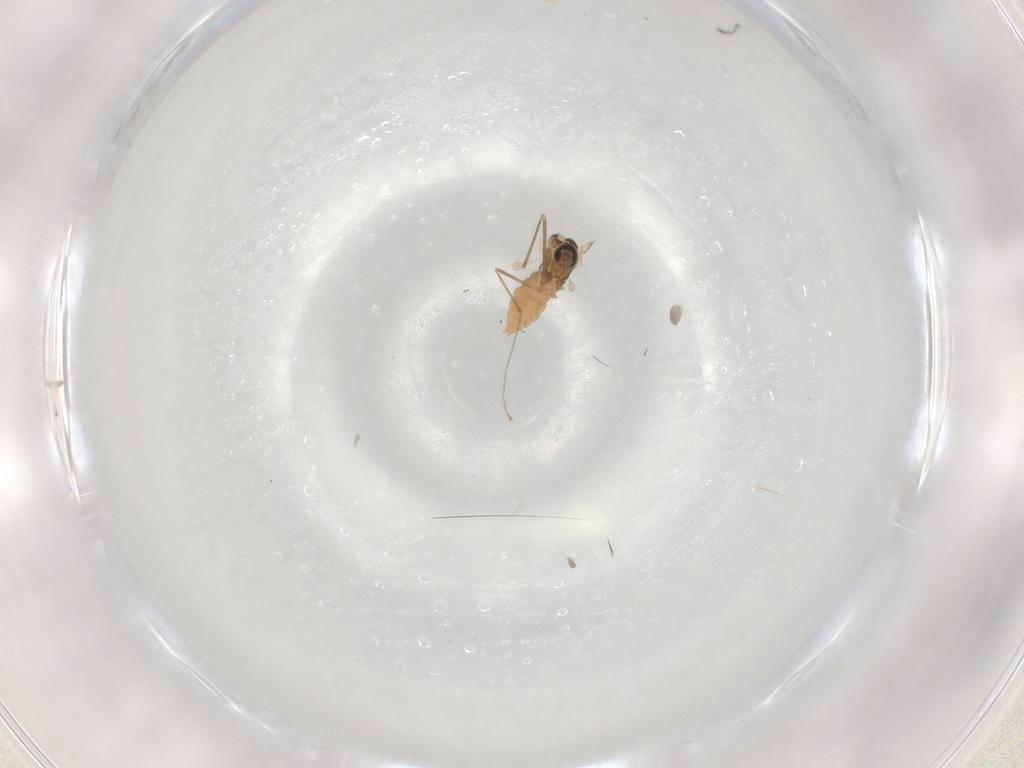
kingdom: Animalia
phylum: Arthropoda
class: Insecta
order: Diptera
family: Cecidomyiidae
